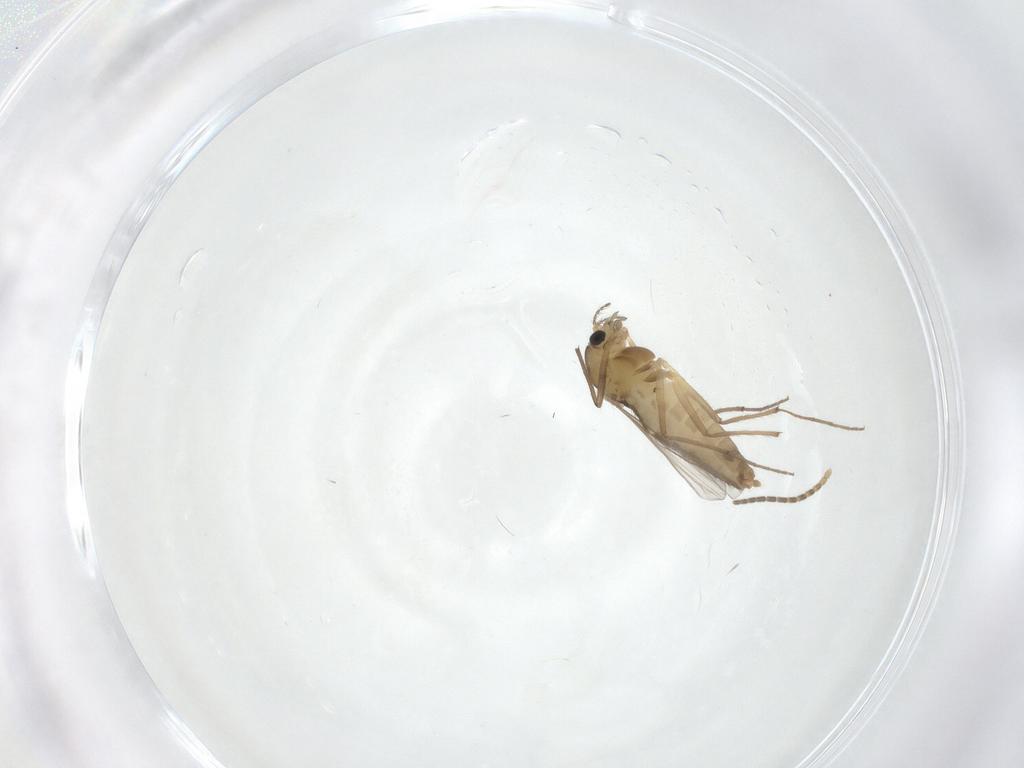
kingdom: Animalia
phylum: Arthropoda
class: Insecta
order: Diptera
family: Chironomidae
